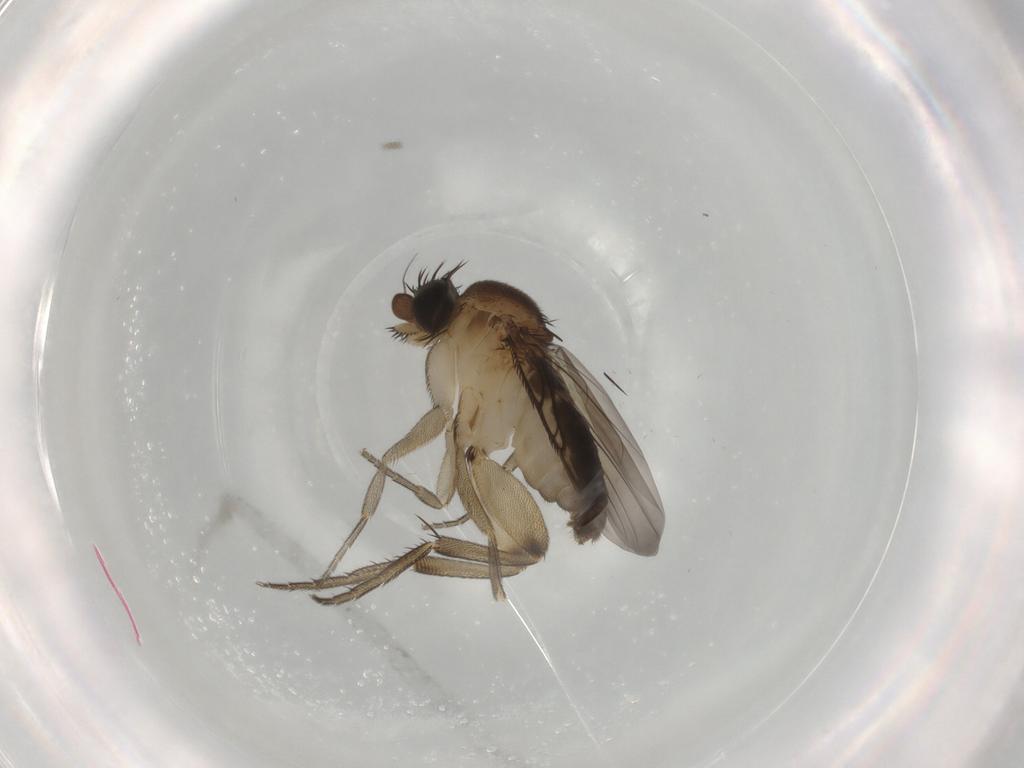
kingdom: Animalia
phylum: Arthropoda
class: Insecta
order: Diptera
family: Phoridae
